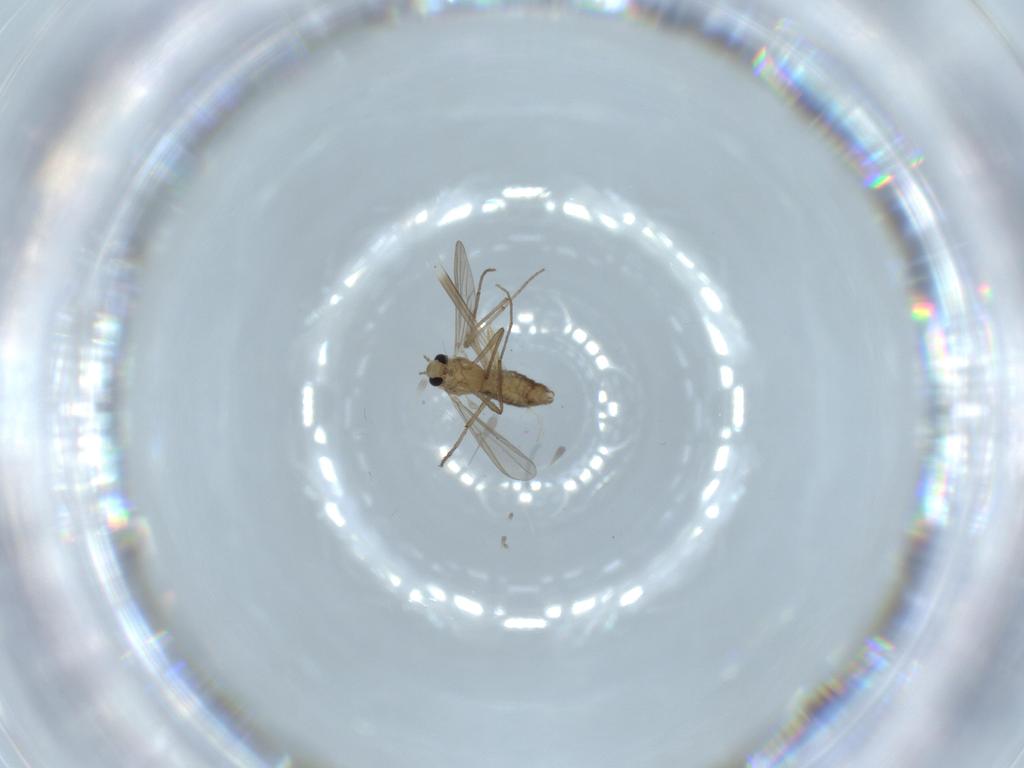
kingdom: Animalia
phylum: Arthropoda
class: Insecta
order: Diptera
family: Chironomidae
